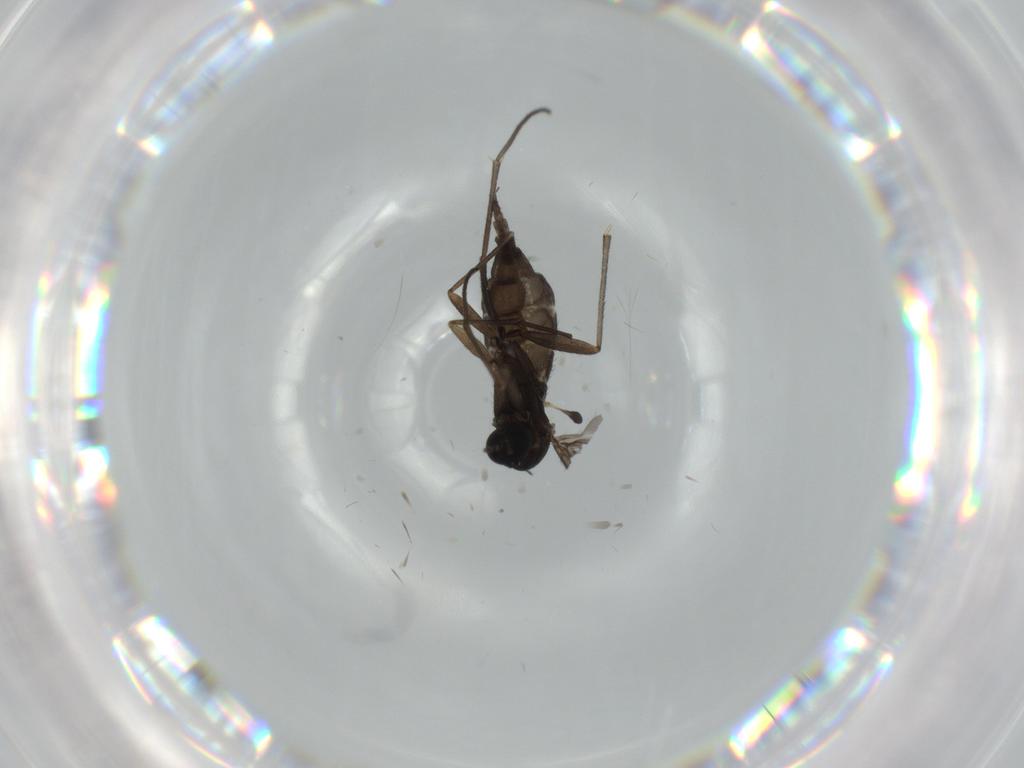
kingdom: Animalia
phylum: Arthropoda
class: Insecta
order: Diptera
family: Sciaridae
